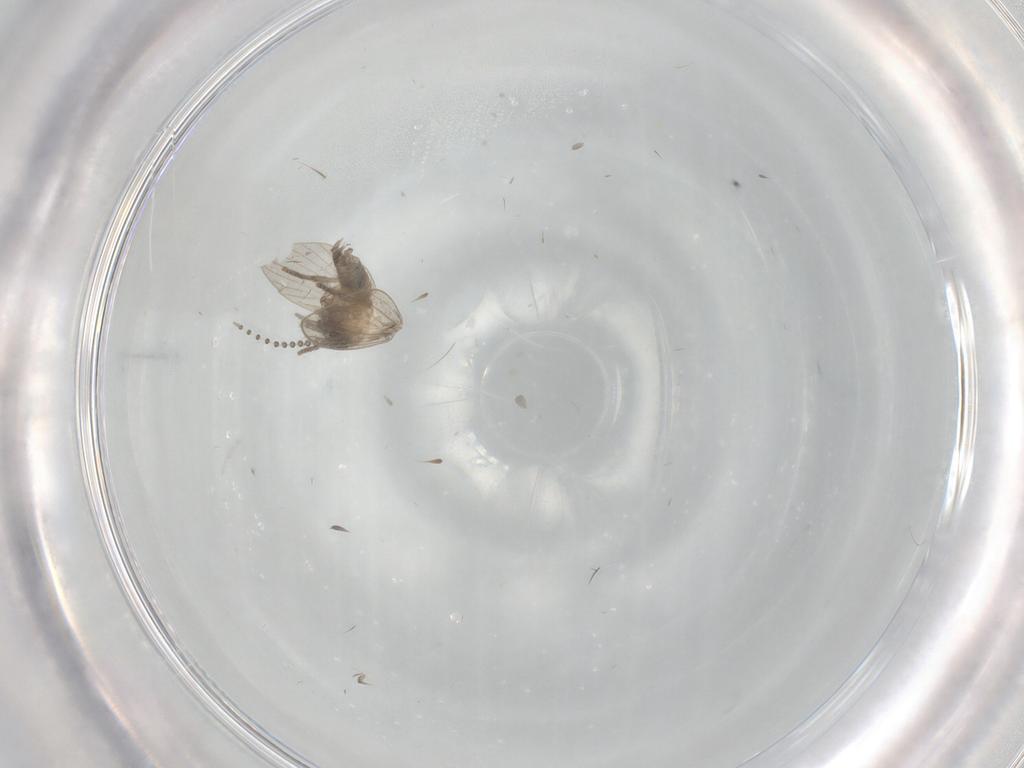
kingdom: Animalia
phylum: Arthropoda
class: Insecta
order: Diptera
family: Psychodidae
